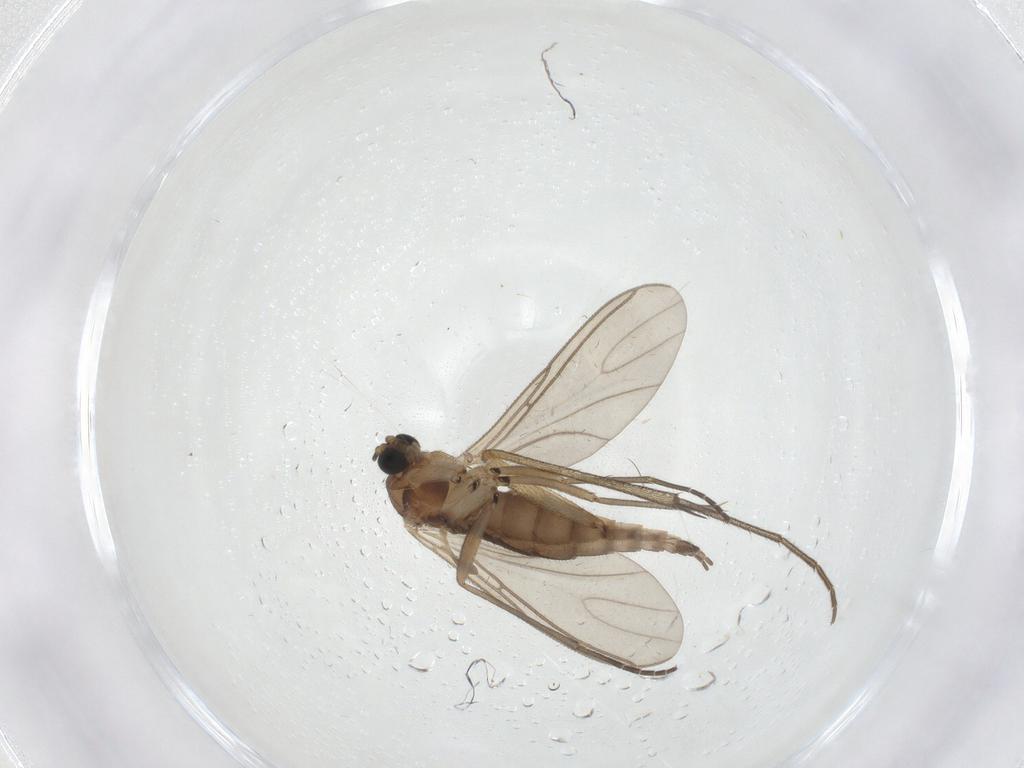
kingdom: Animalia
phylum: Arthropoda
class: Insecta
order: Diptera
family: Sciaridae
